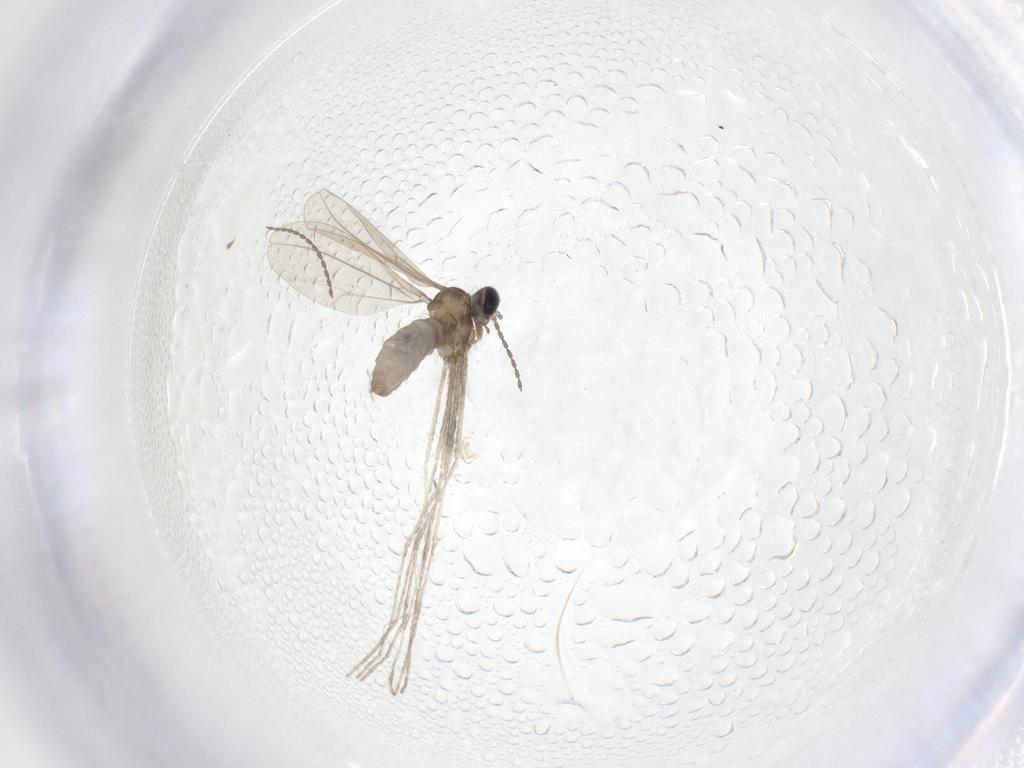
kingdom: Animalia
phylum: Arthropoda
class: Insecta
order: Diptera
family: Cecidomyiidae
